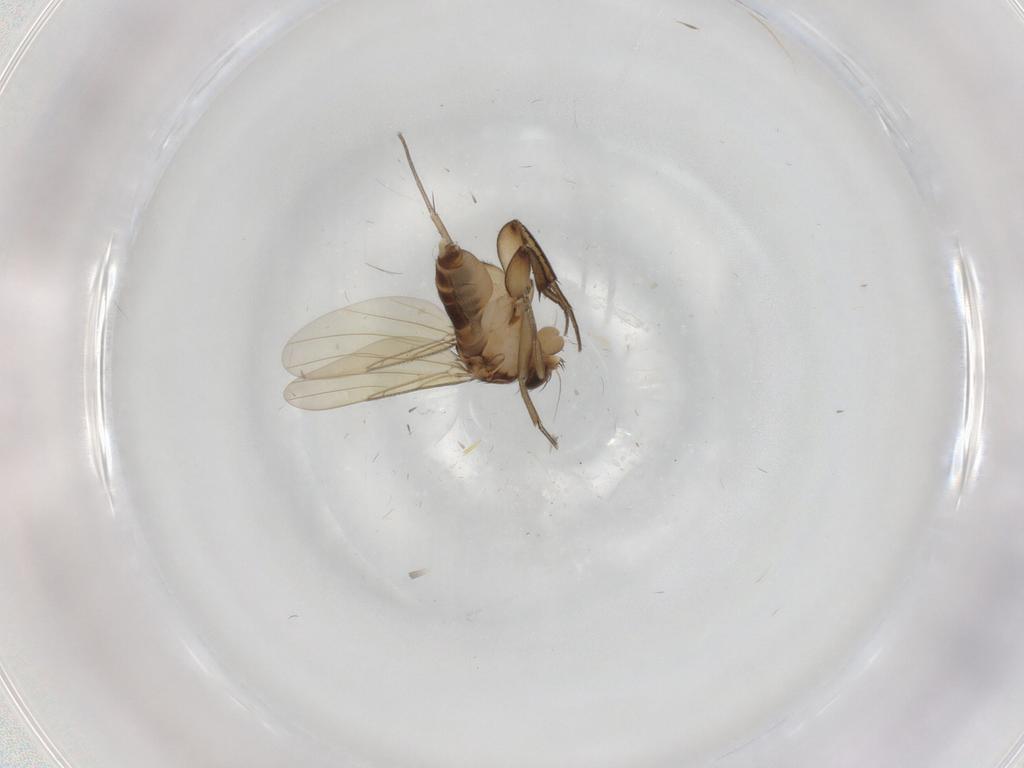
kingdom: Animalia
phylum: Arthropoda
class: Insecta
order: Diptera
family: Phoridae
